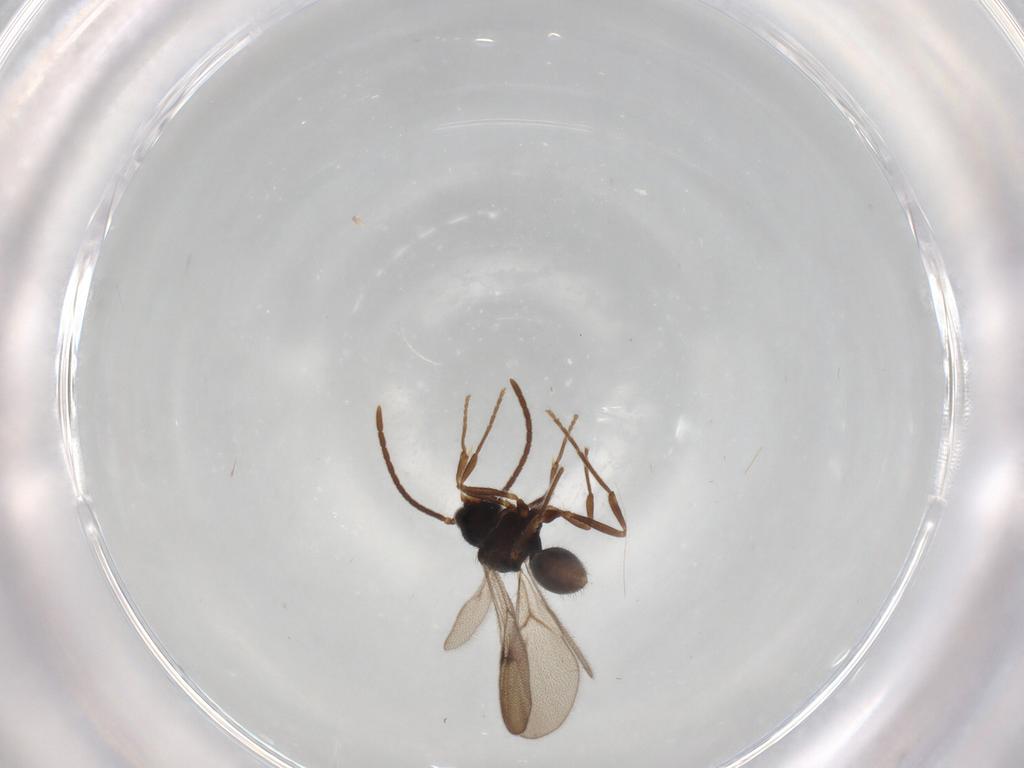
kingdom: Animalia
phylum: Arthropoda
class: Insecta
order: Hymenoptera
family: Formicidae
